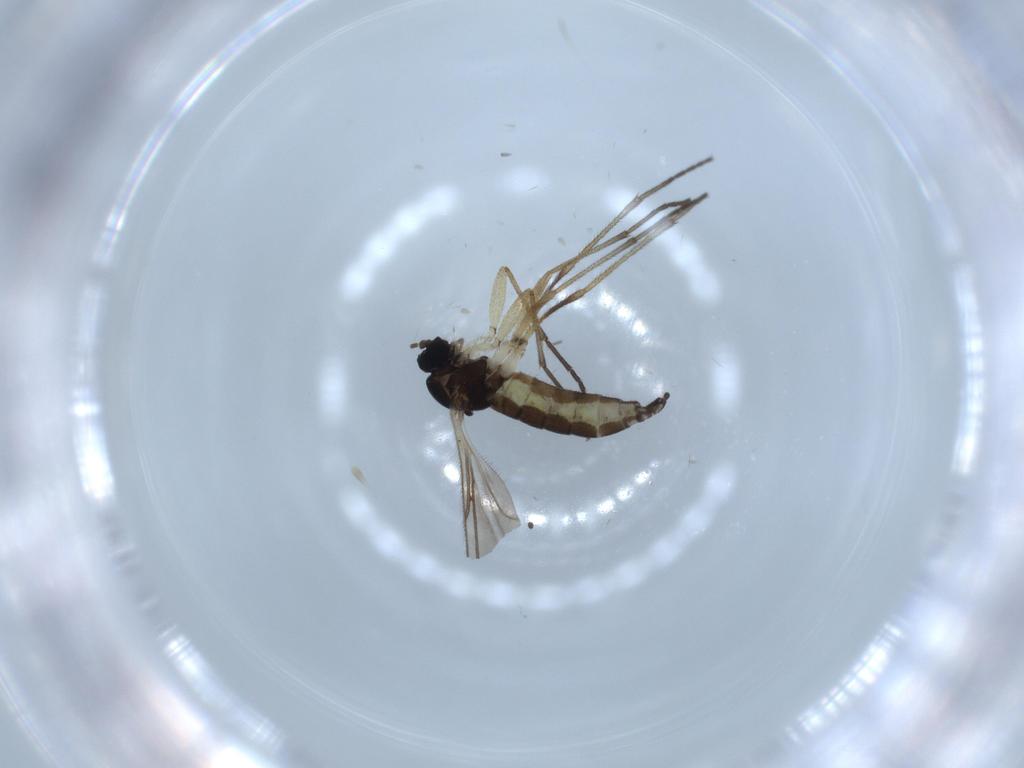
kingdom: Animalia
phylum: Arthropoda
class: Insecta
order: Diptera
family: Sciaridae
